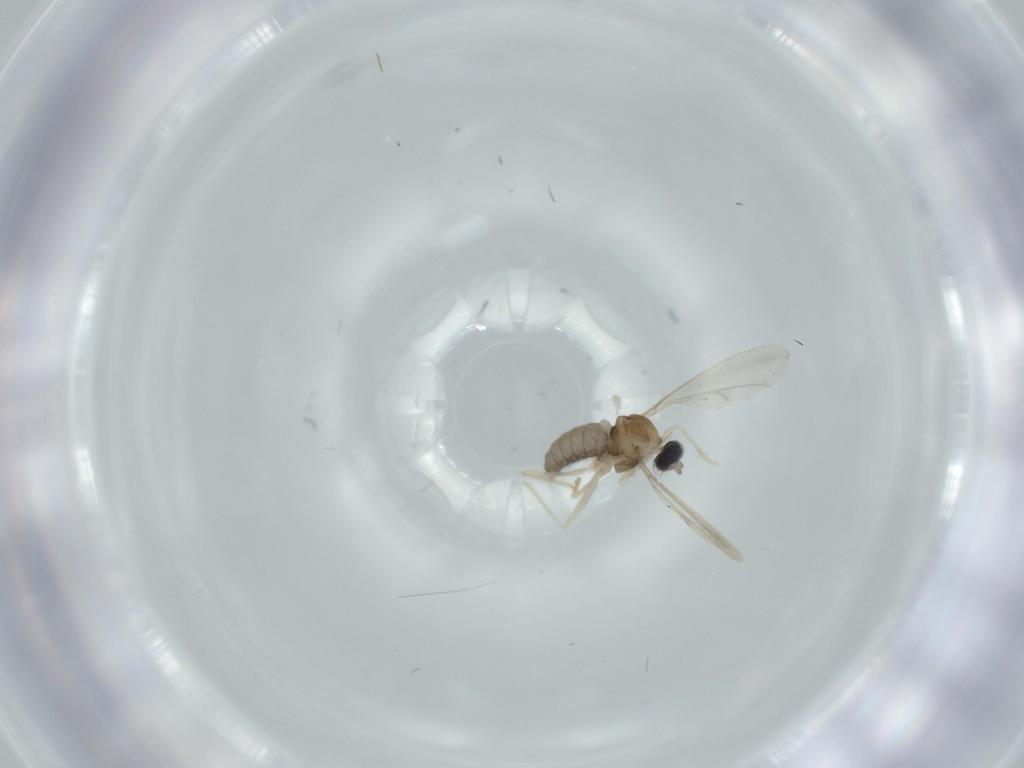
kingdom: Animalia
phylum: Arthropoda
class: Insecta
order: Diptera
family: Cecidomyiidae
